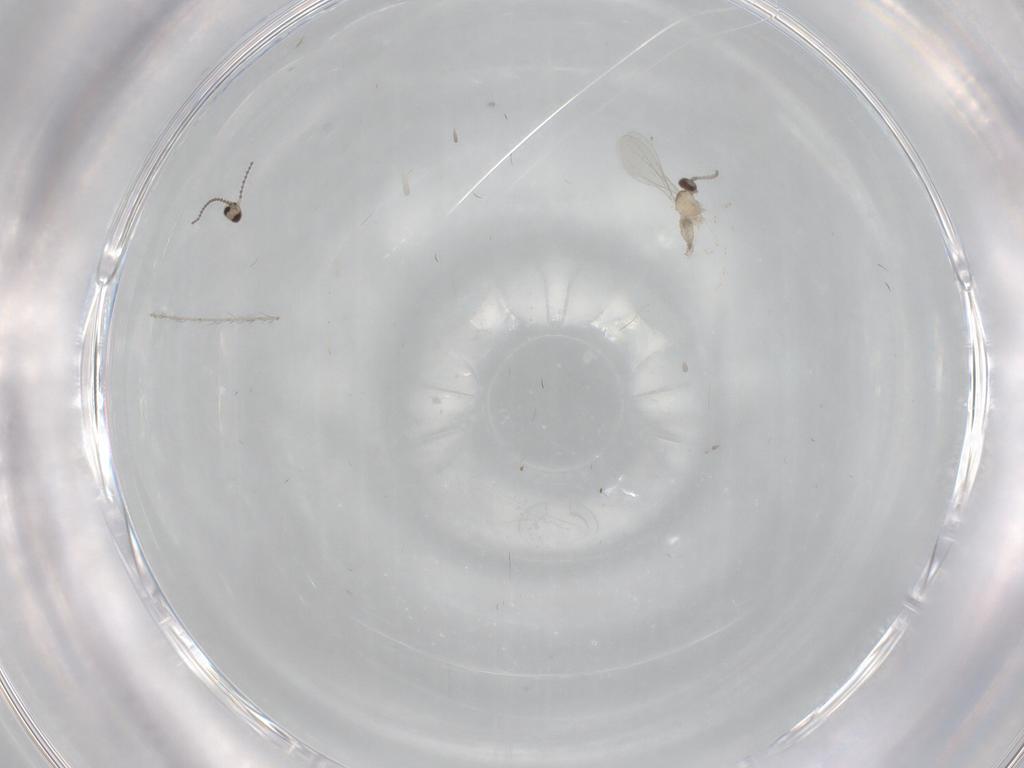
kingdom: Animalia
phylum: Arthropoda
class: Insecta
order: Diptera
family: Cecidomyiidae
